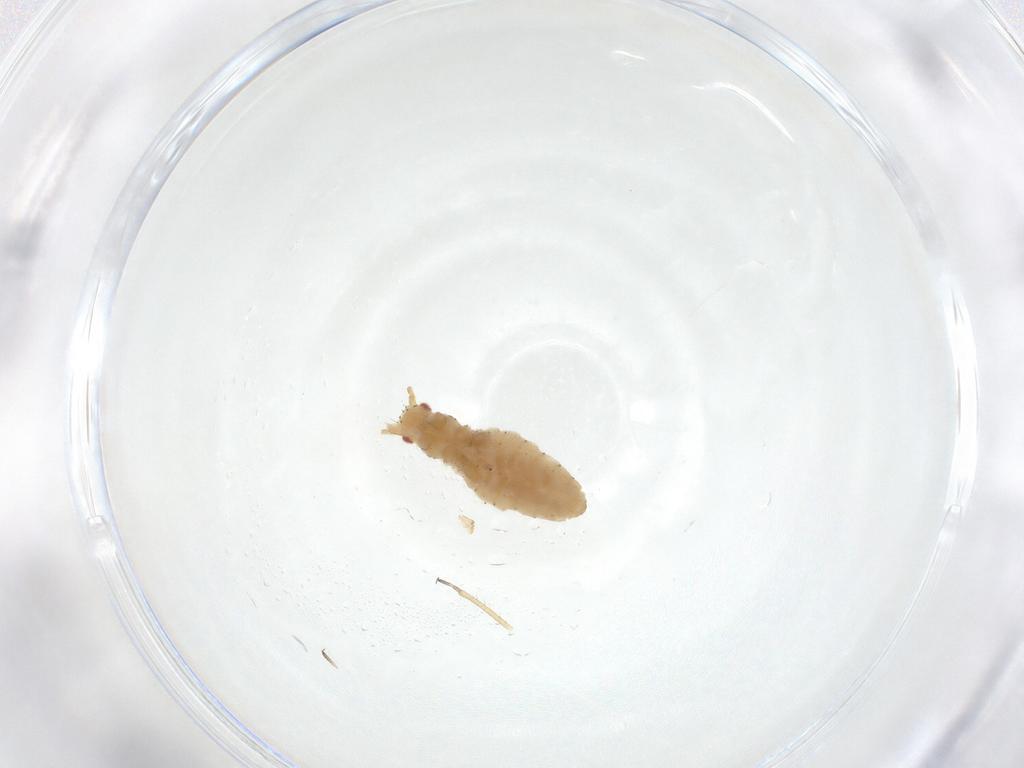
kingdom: Animalia
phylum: Arthropoda
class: Insecta
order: Hemiptera
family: Aphididae
